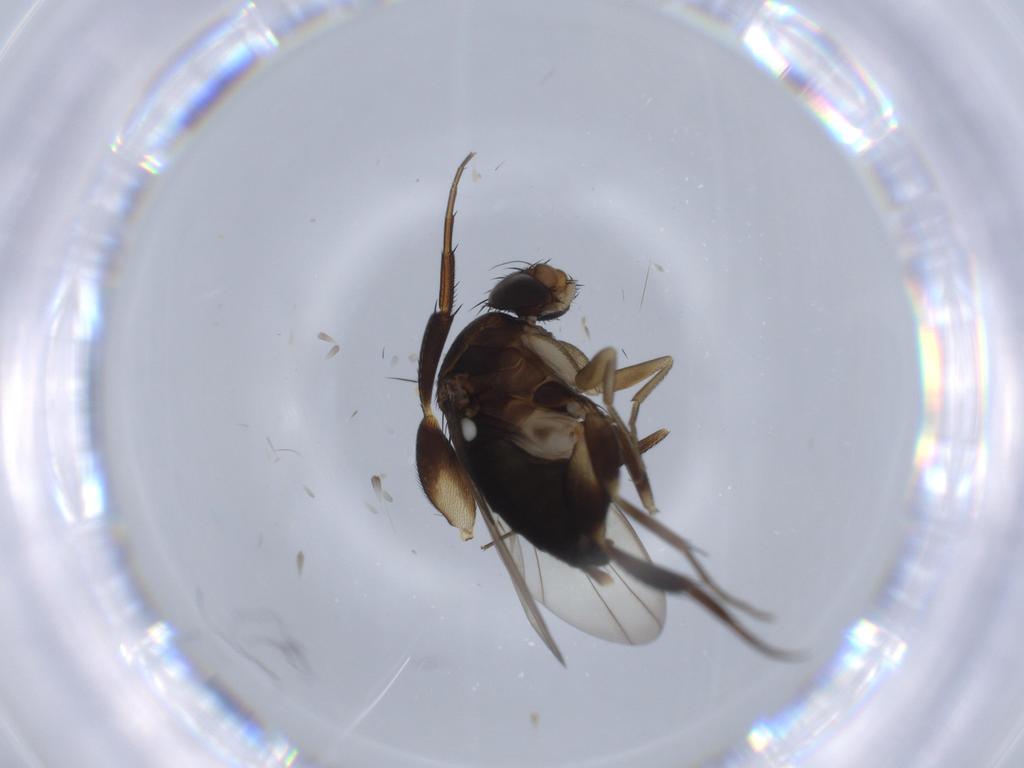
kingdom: Animalia
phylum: Arthropoda
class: Insecta
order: Diptera
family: Phoridae
